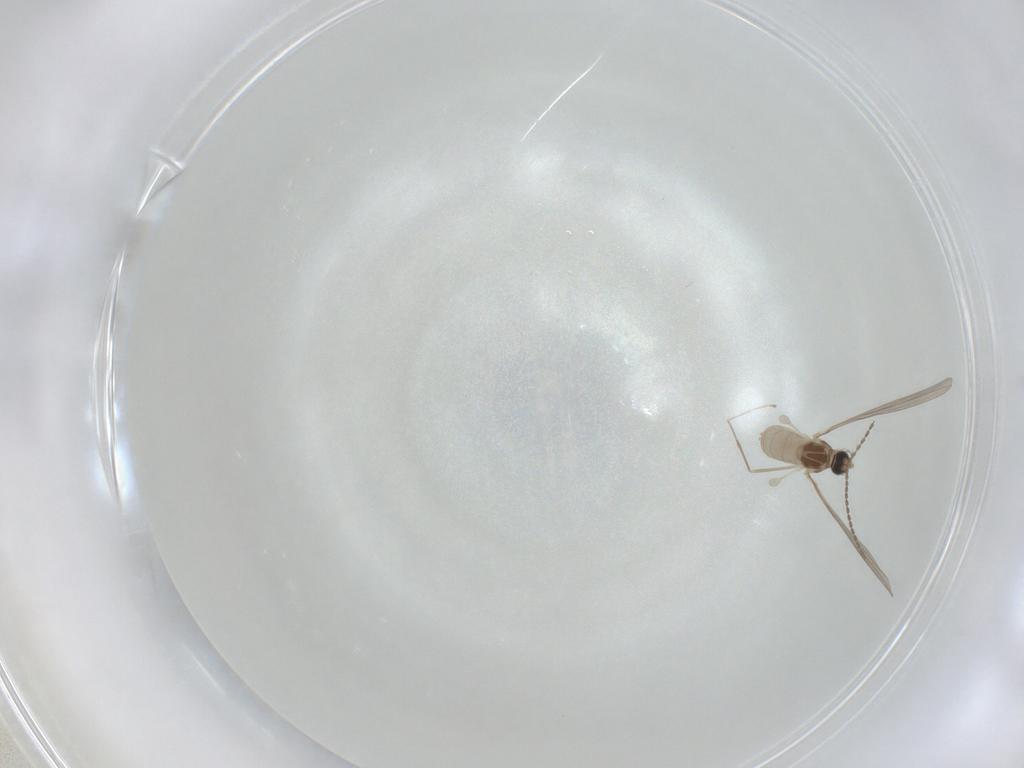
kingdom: Animalia
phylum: Arthropoda
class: Insecta
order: Diptera
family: Cecidomyiidae
